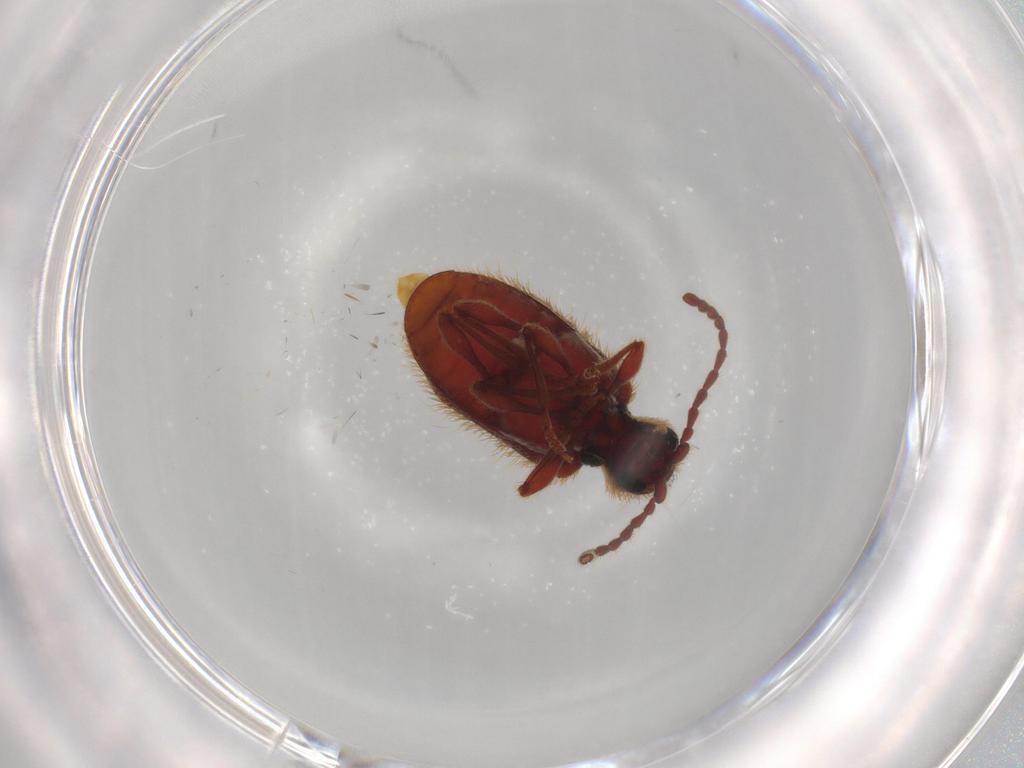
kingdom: Animalia
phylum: Arthropoda
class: Insecta
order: Coleoptera
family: Ptinidae
